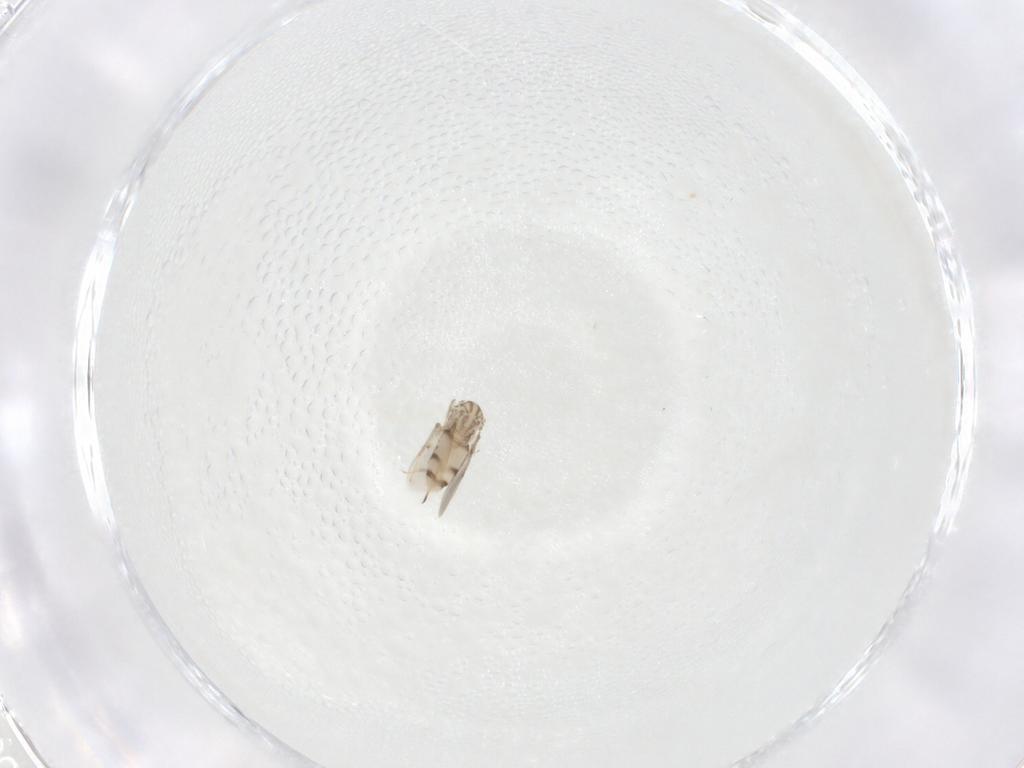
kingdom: Animalia
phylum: Arthropoda
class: Insecta
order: Hymenoptera
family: Aphelinidae
